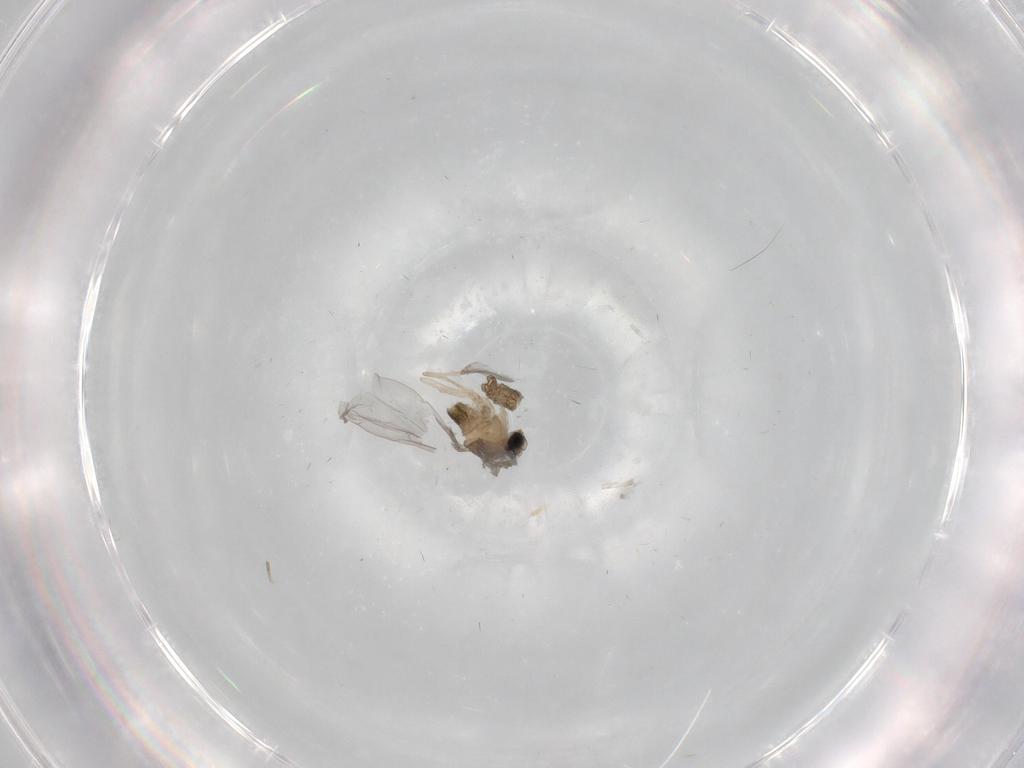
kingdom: Animalia
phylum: Arthropoda
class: Insecta
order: Diptera
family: Cecidomyiidae
